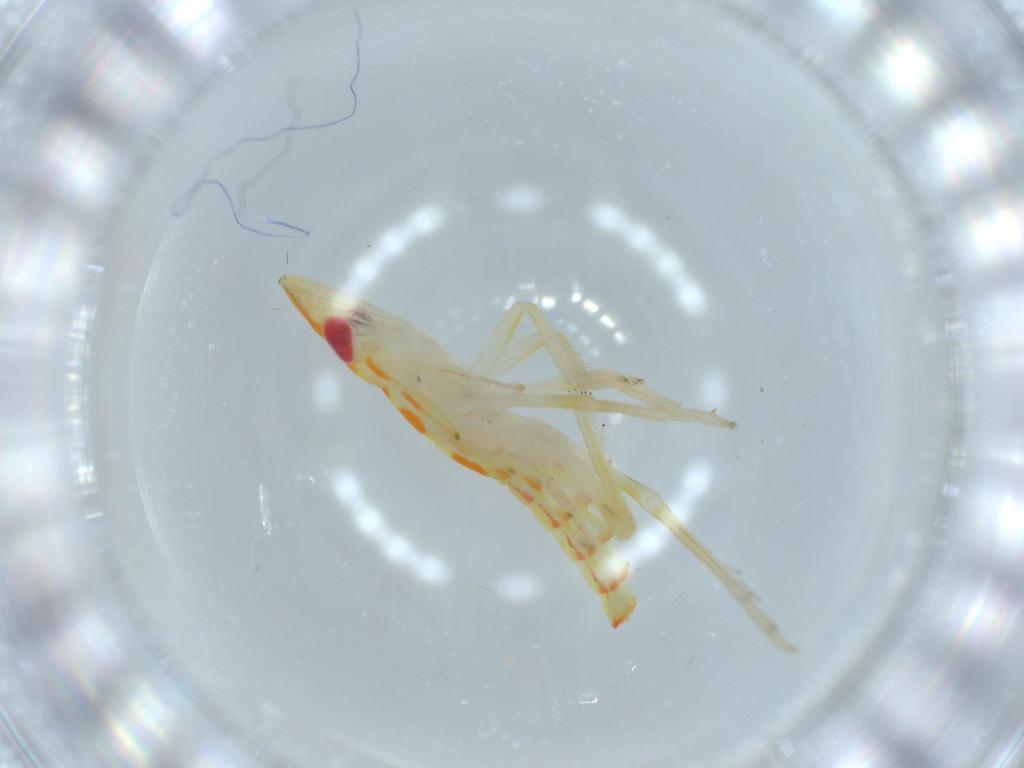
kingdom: Animalia
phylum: Arthropoda
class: Insecta
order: Hemiptera
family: Tropiduchidae
